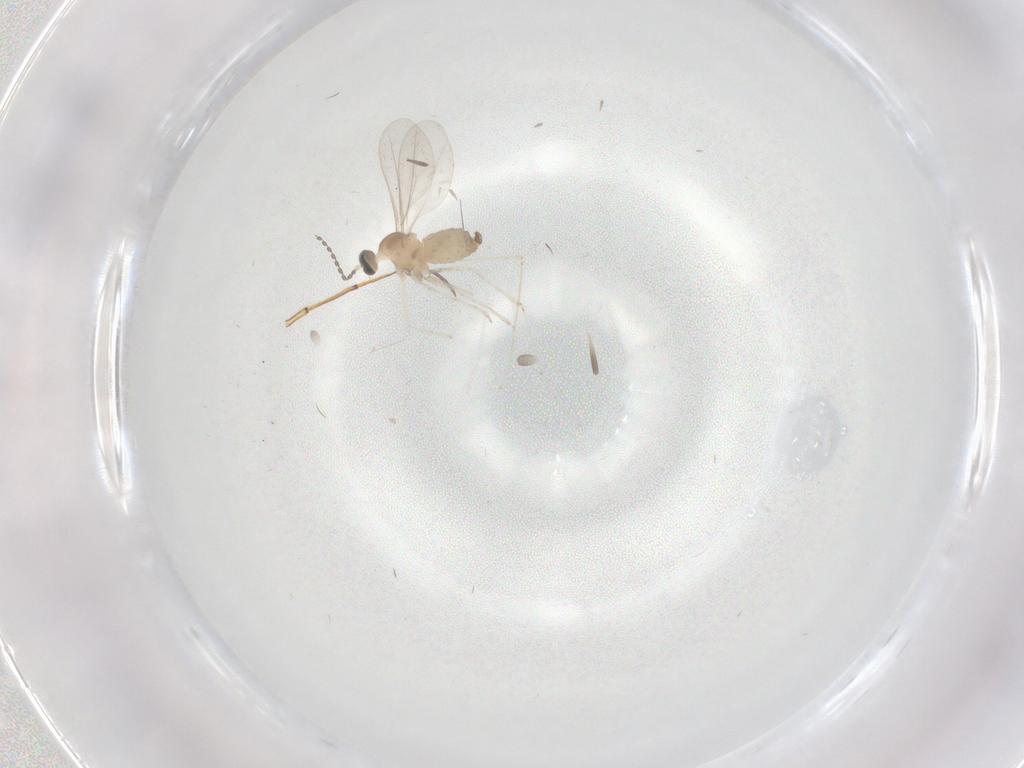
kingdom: Animalia
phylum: Arthropoda
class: Insecta
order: Diptera
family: Cecidomyiidae
